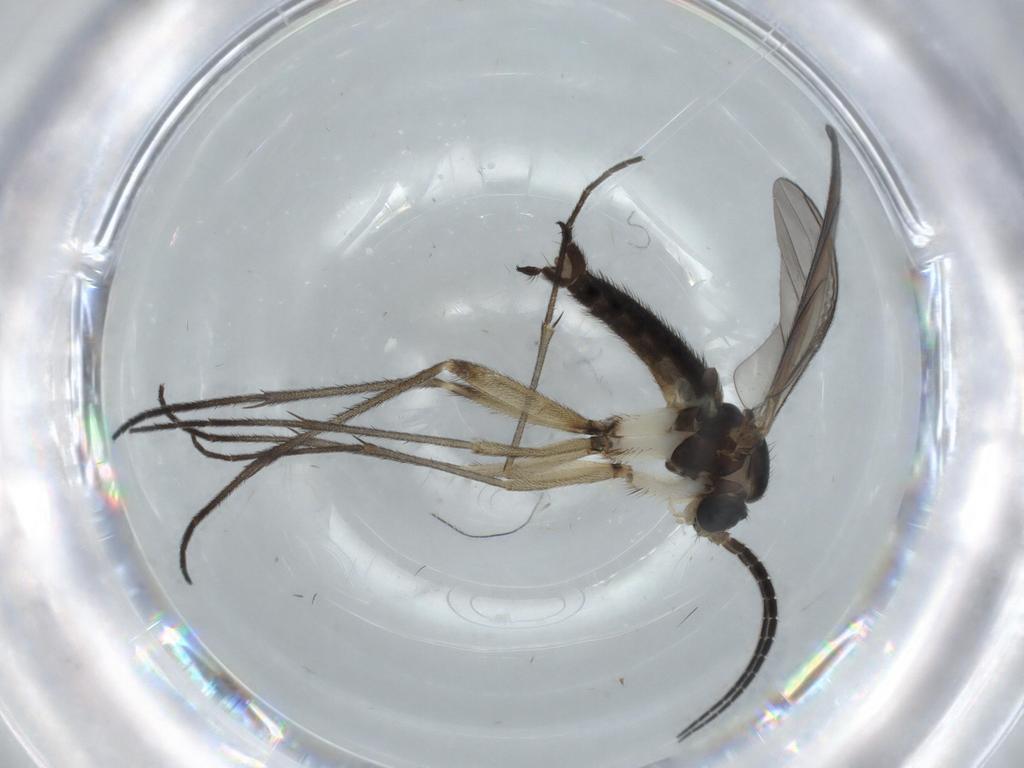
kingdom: Animalia
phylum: Arthropoda
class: Insecta
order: Diptera
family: Sciaridae
